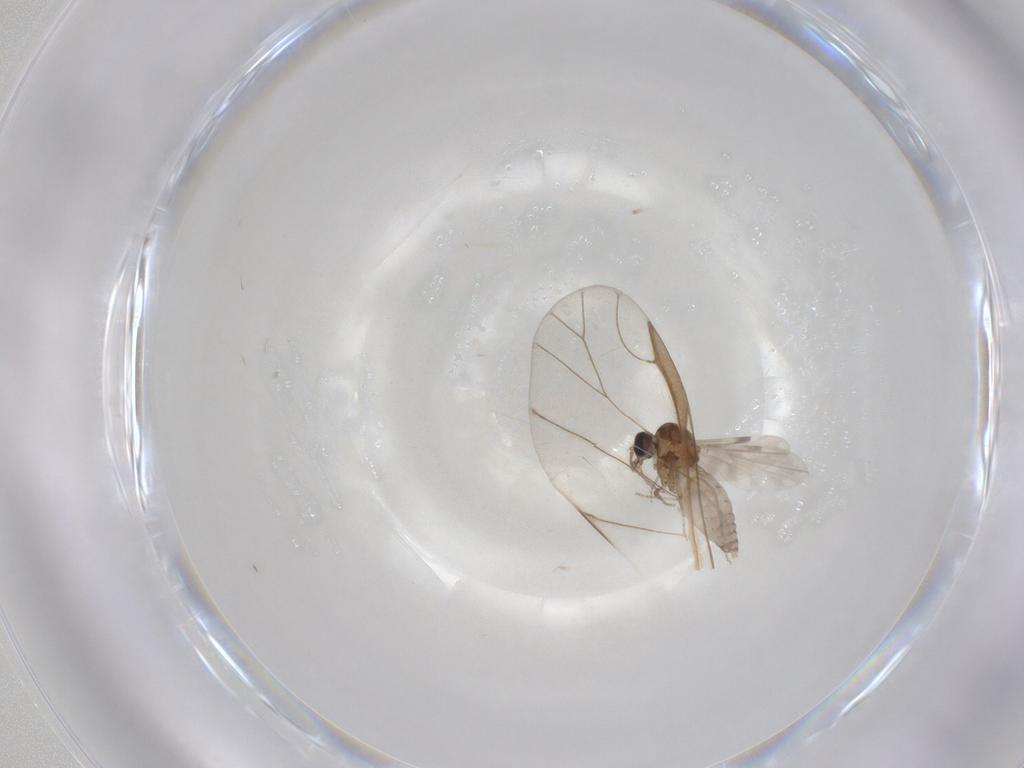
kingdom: Animalia
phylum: Arthropoda
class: Insecta
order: Diptera
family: Ceratopogonidae
